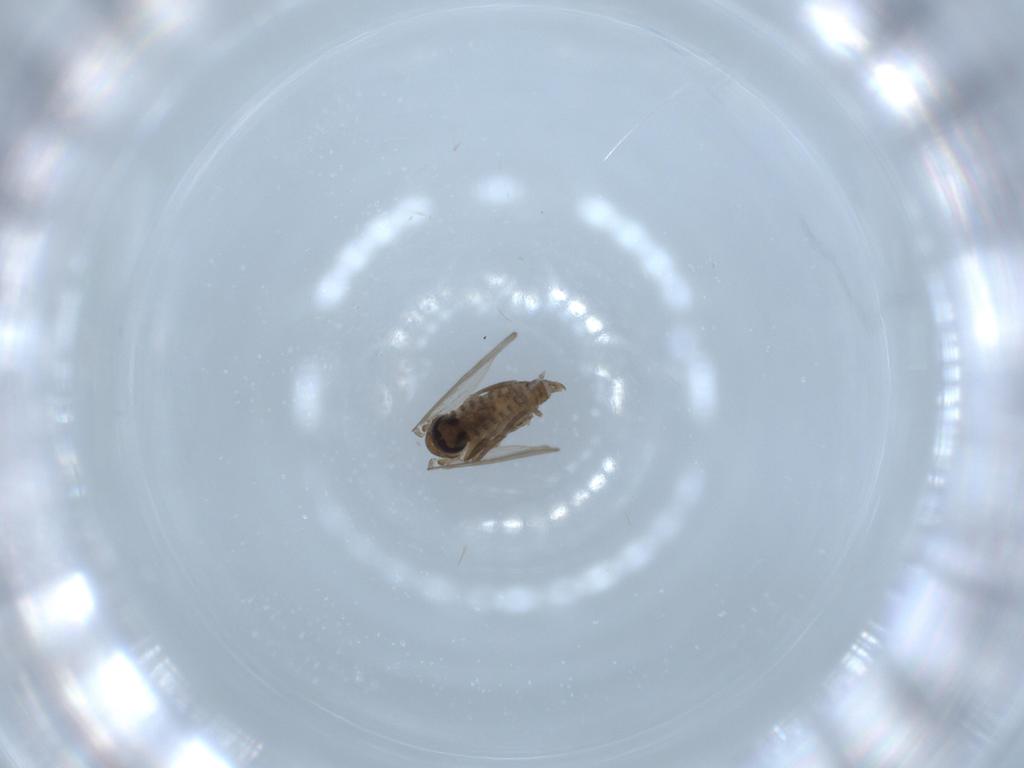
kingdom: Animalia
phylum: Arthropoda
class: Insecta
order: Diptera
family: Psychodidae
